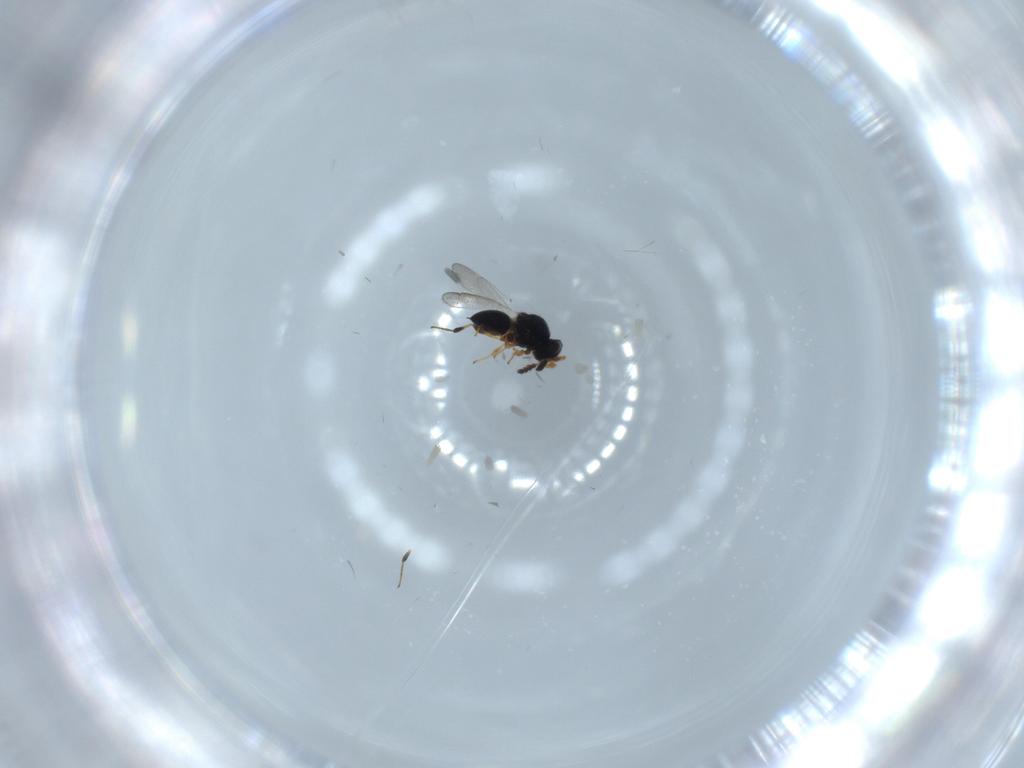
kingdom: Animalia
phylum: Arthropoda
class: Insecta
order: Hymenoptera
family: Platygastridae
